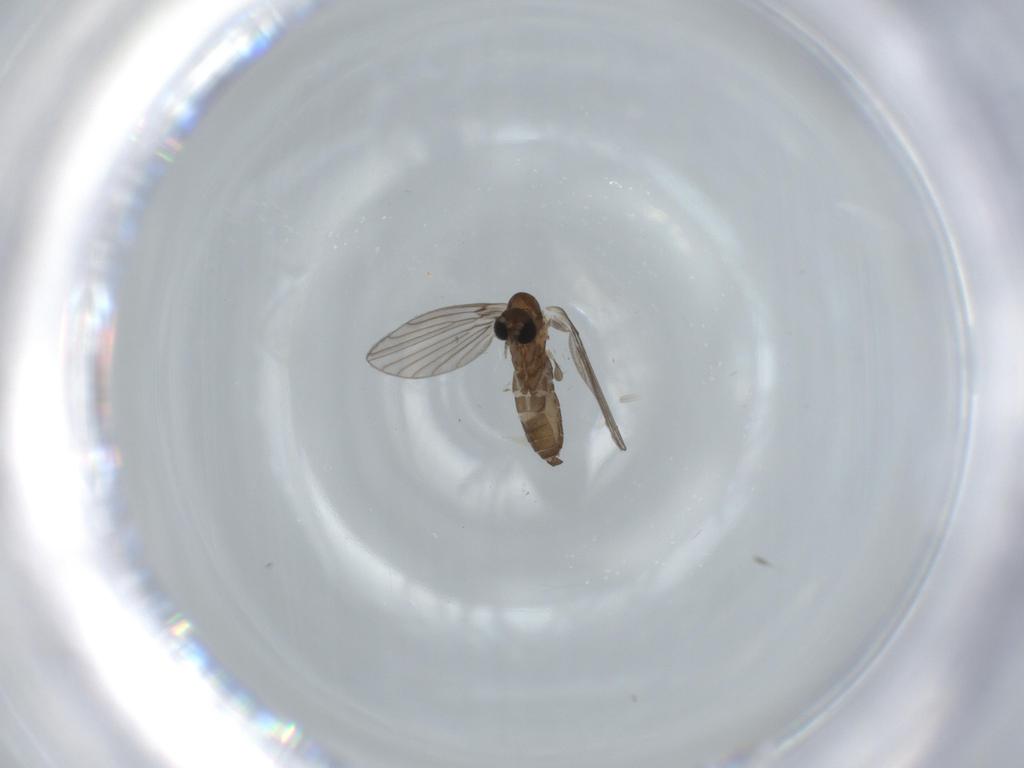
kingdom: Animalia
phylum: Arthropoda
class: Insecta
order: Diptera
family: Psychodidae
